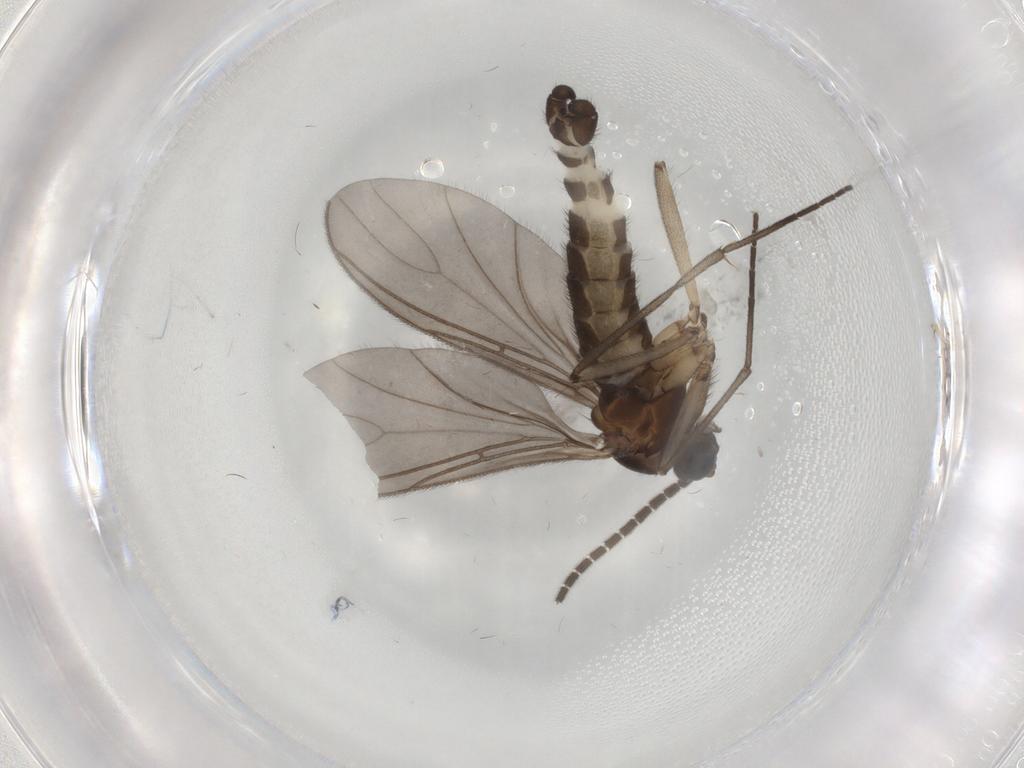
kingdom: Animalia
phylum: Arthropoda
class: Insecta
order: Diptera
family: Sciaridae
